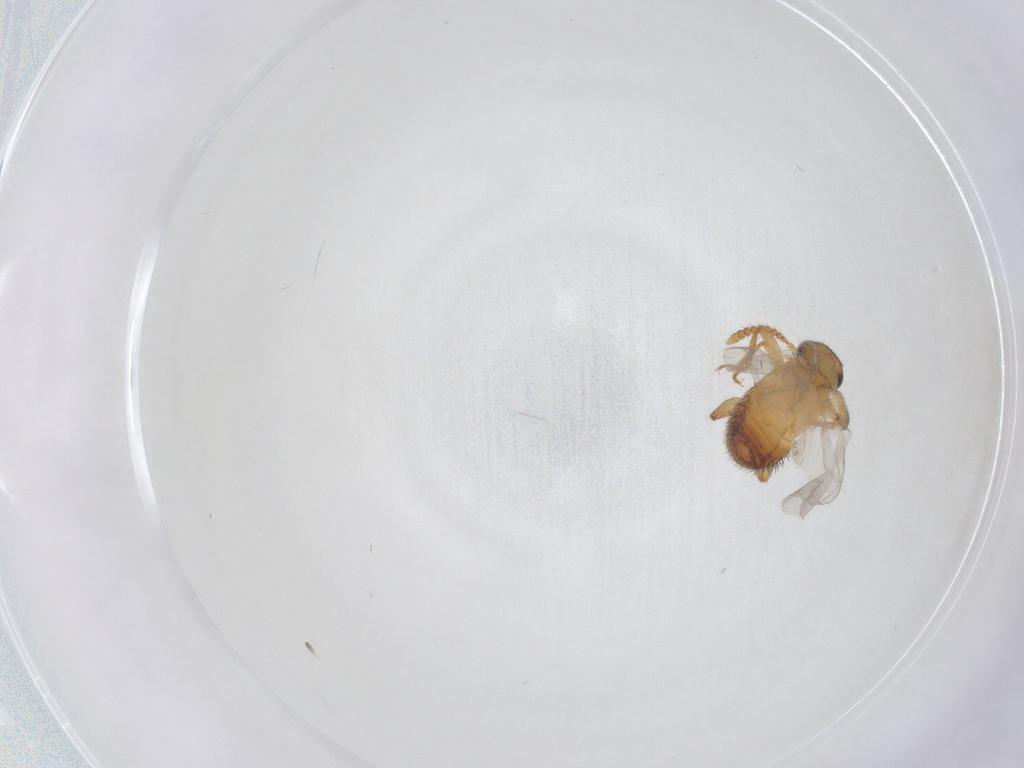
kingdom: Animalia
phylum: Arthropoda
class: Insecta
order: Coleoptera
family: Staphylinidae
